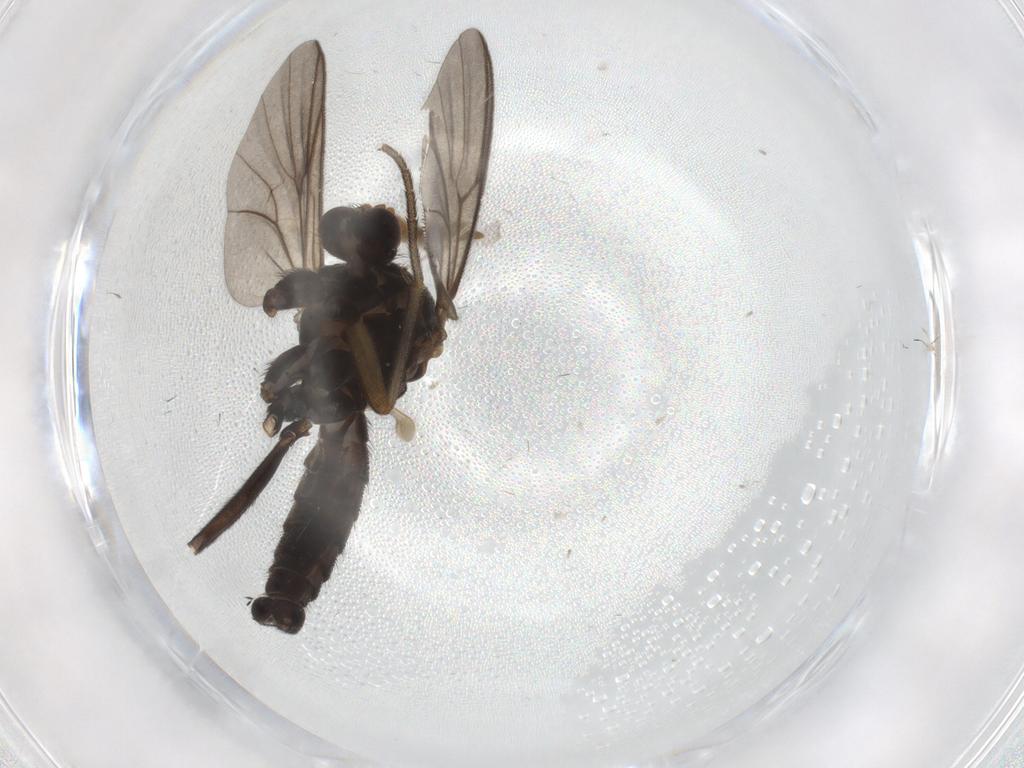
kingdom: Animalia
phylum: Arthropoda
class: Insecta
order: Diptera
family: Mycetophilidae
